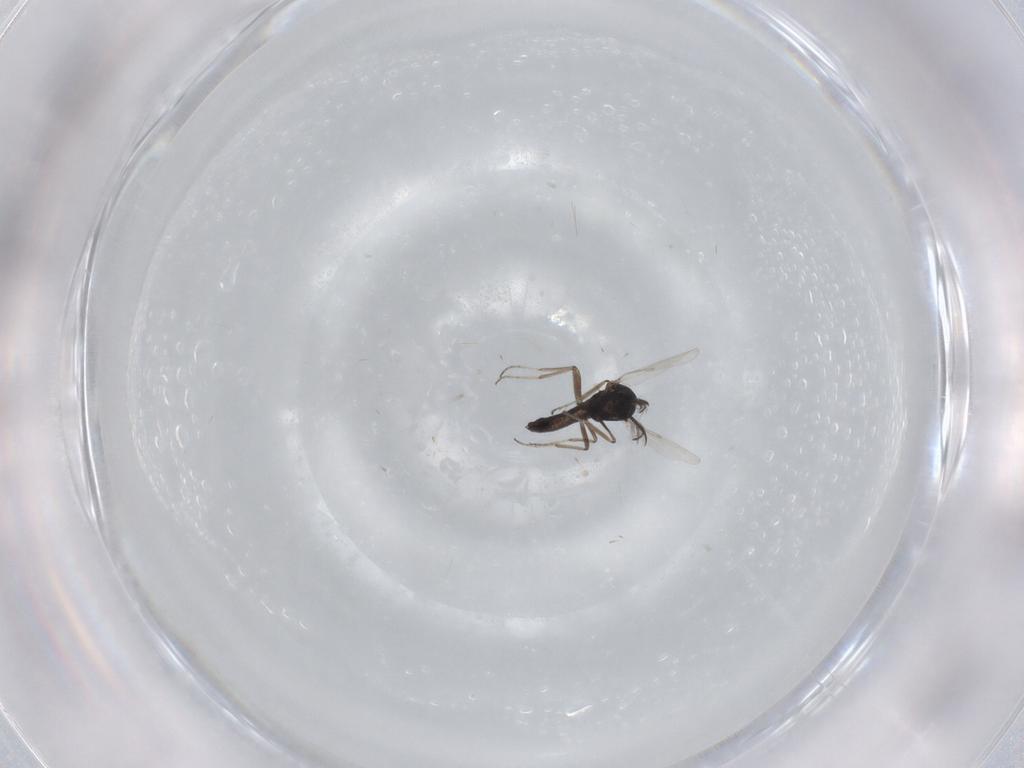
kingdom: Animalia
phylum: Arthropoda
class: Insecta
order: Diptera
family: Ceratopogonidae
